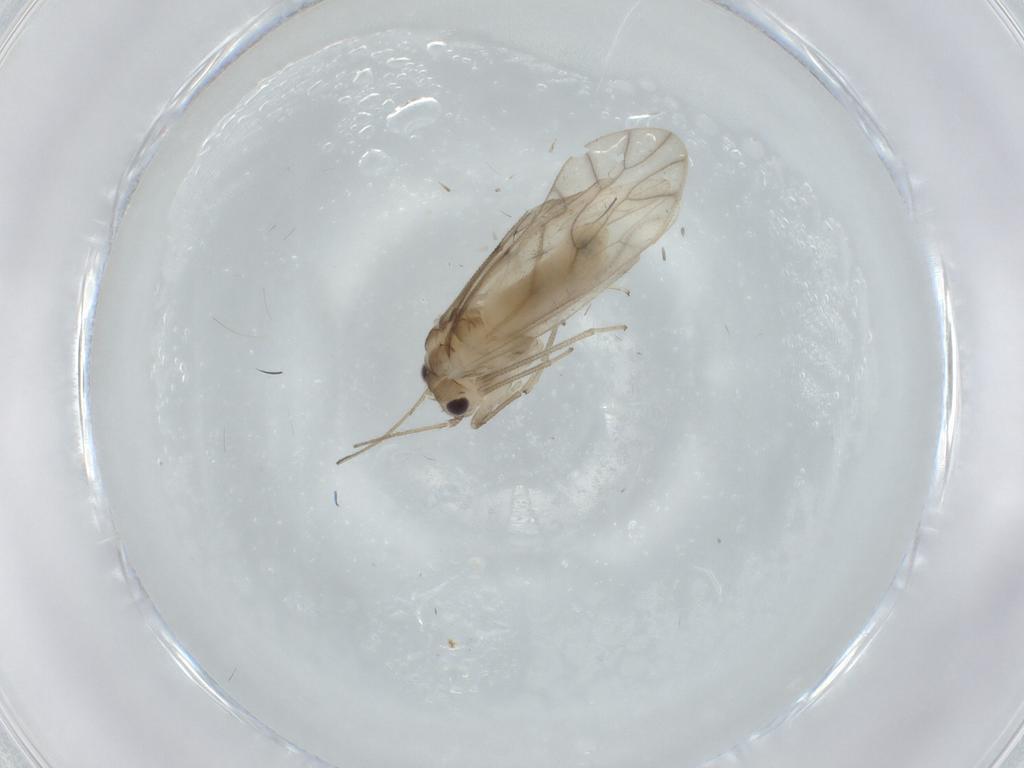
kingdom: Animalia
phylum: Arthropoda
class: Insecta
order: Psocodea
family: Caeciliusidae
